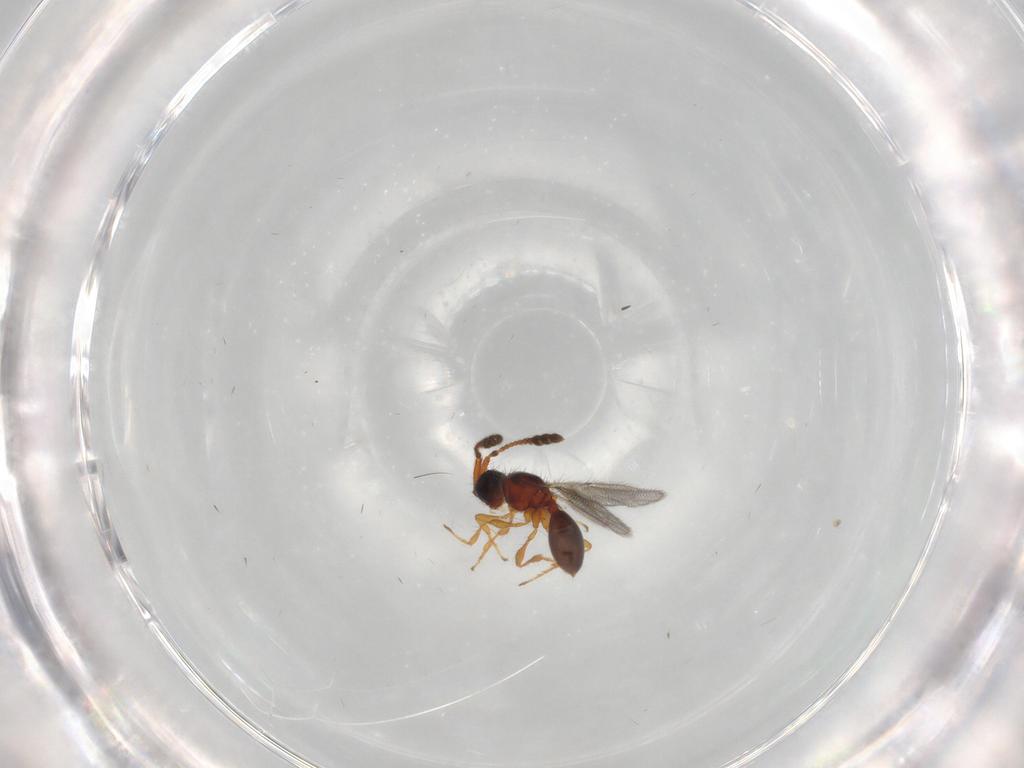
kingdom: Animalia
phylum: Arthropoda
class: Insecta
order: Hymenoptera
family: Diapriidae
